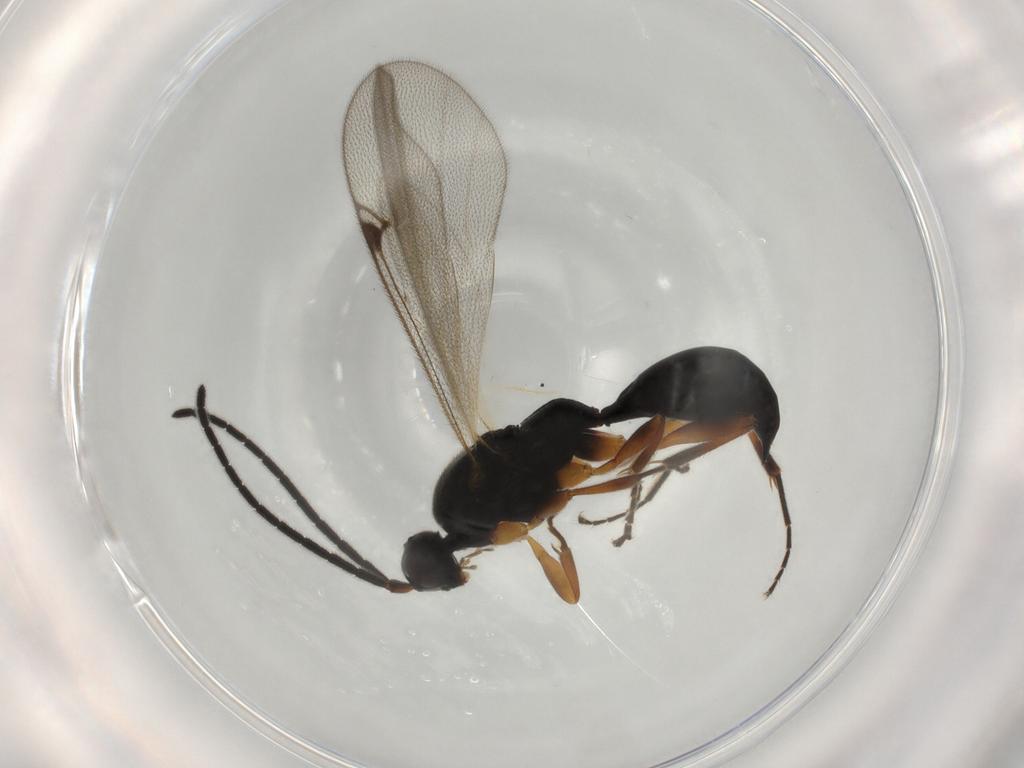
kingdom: Animalia
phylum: Arthropoda
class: Insecta
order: Hymenoptera
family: Proctotrupidae
